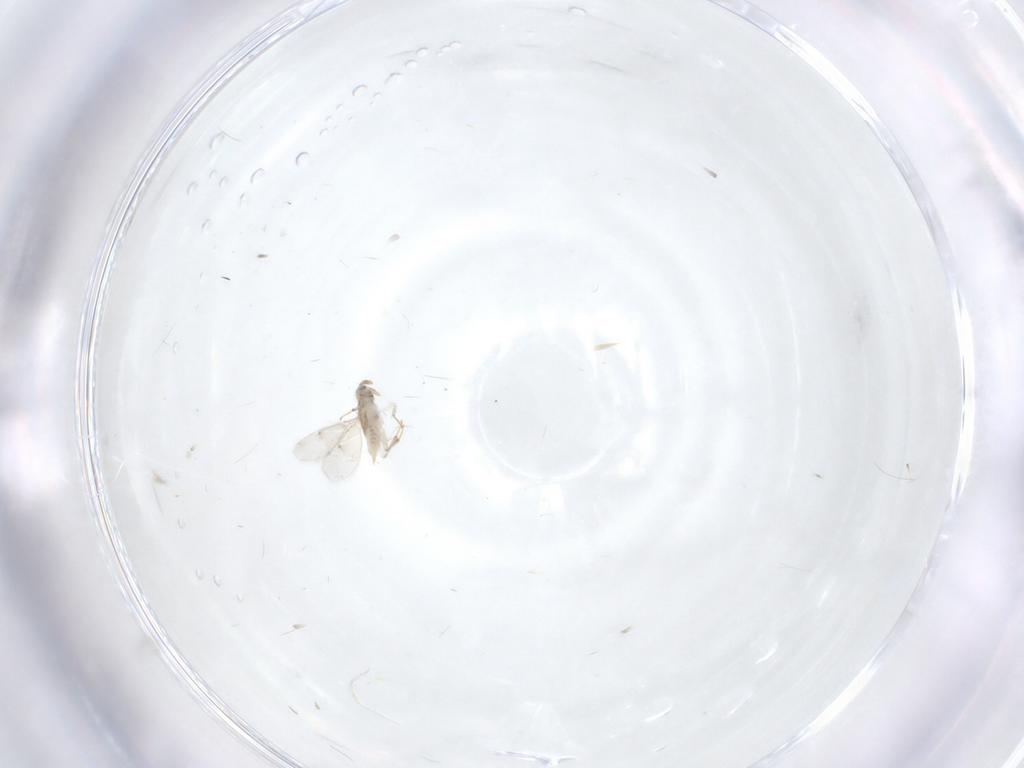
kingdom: Animalia
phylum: Arthropoda
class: Insecta
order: Hymenoptera
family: Aphelinidae
